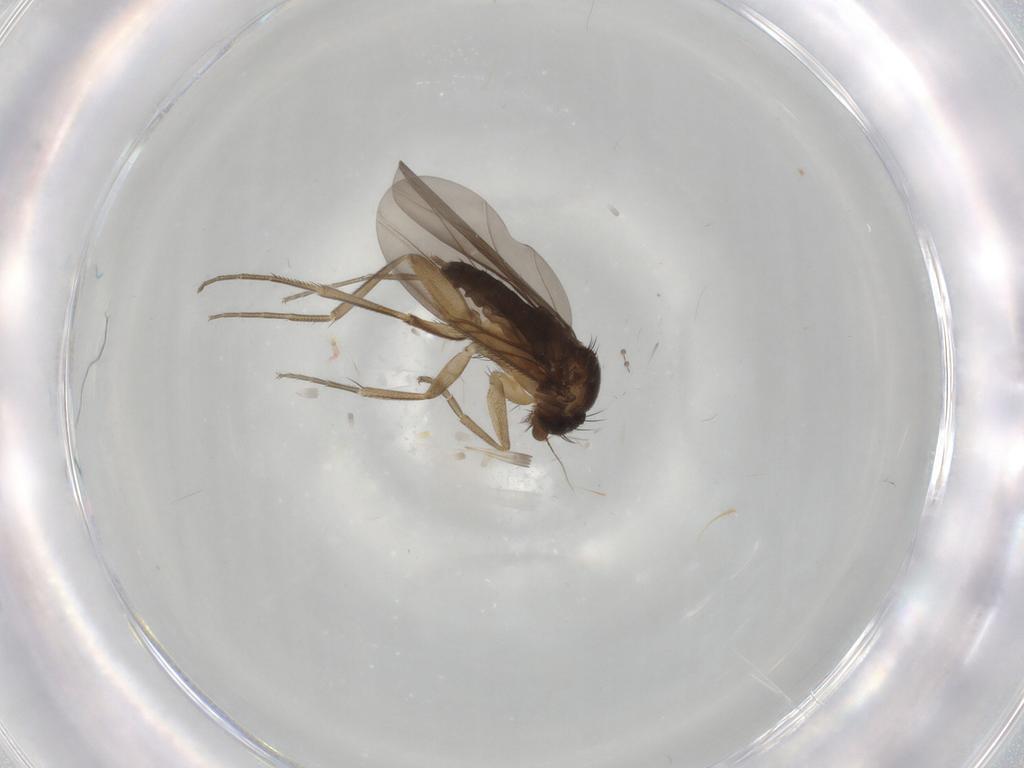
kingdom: Animalia
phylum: Arthropoda
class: Insecta
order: Diptera
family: Phoridae
